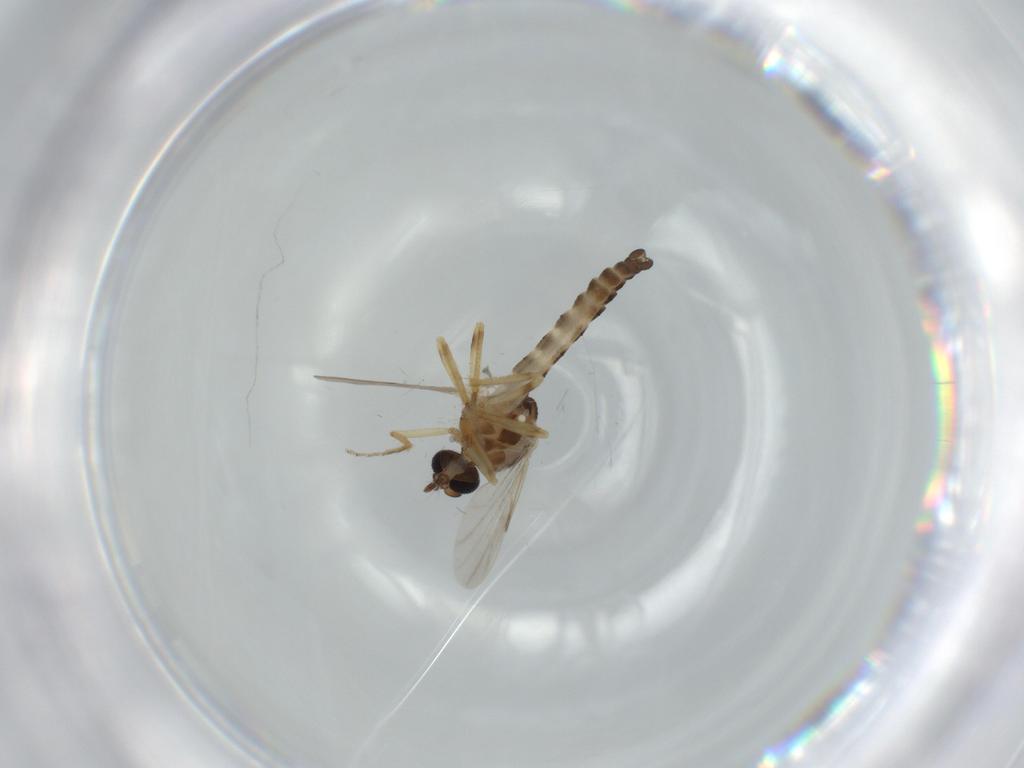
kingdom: Animalia
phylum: Arthropoda
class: Insecta
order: Diptera
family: Ceratopogonidae
